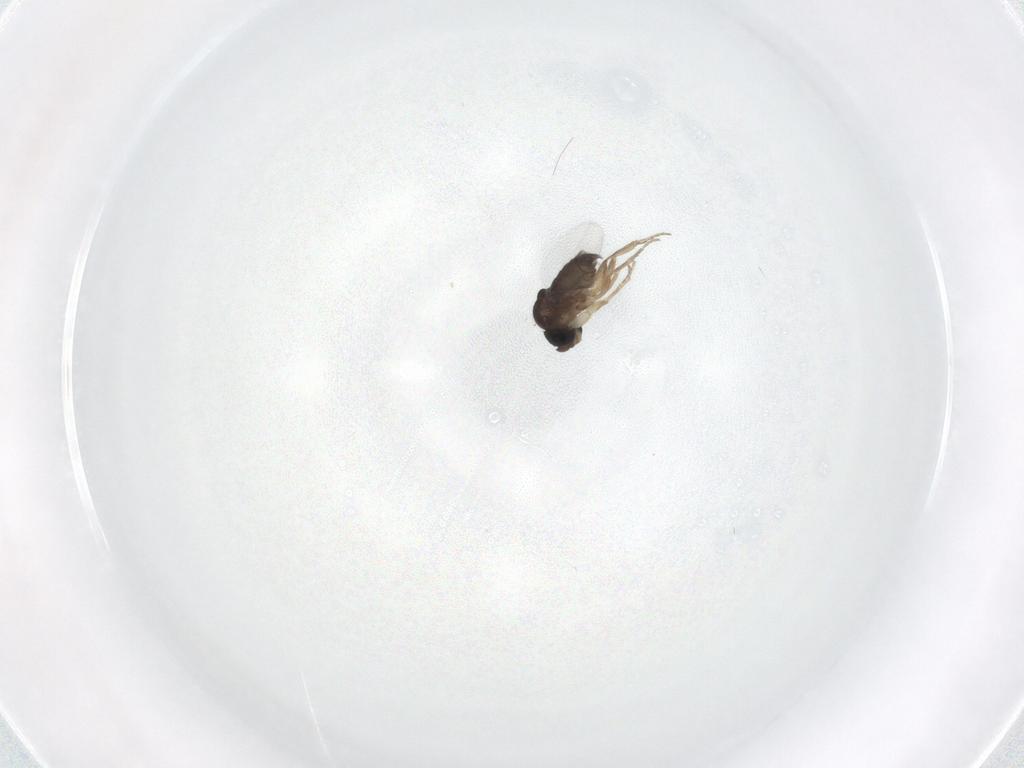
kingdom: Animalia
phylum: Arthropoda
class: Insecta
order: Diptera
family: Phoridae
